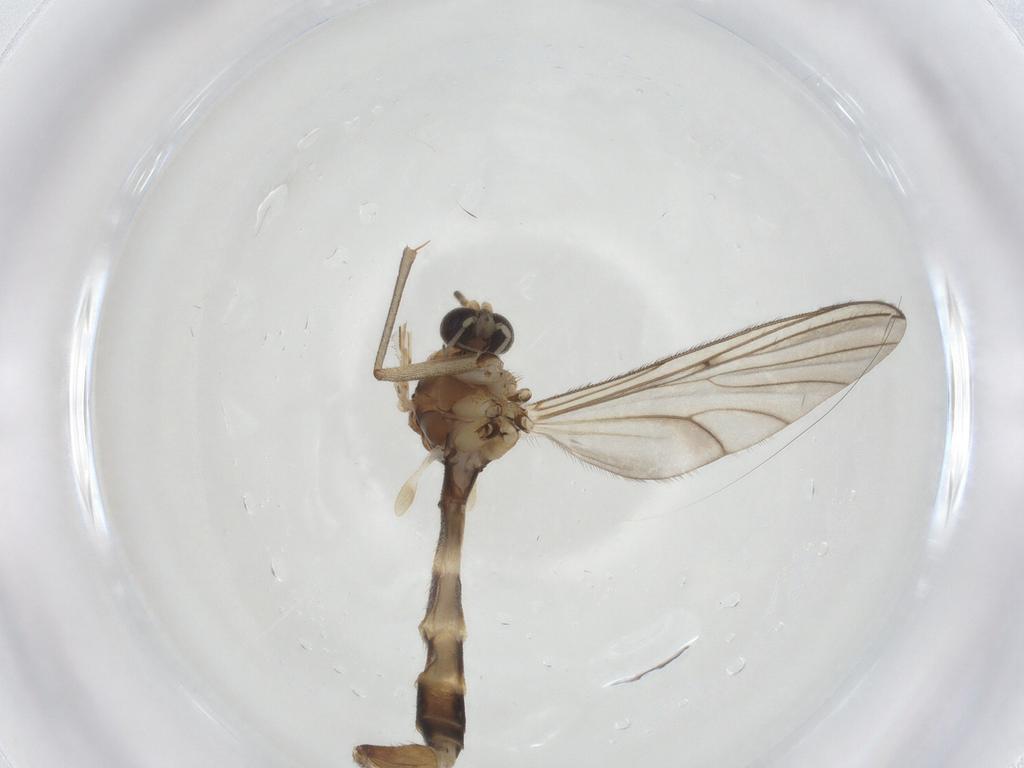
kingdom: Animalia
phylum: Arthropoda
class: Insecta
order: Diptera
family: Mycetophilidae
